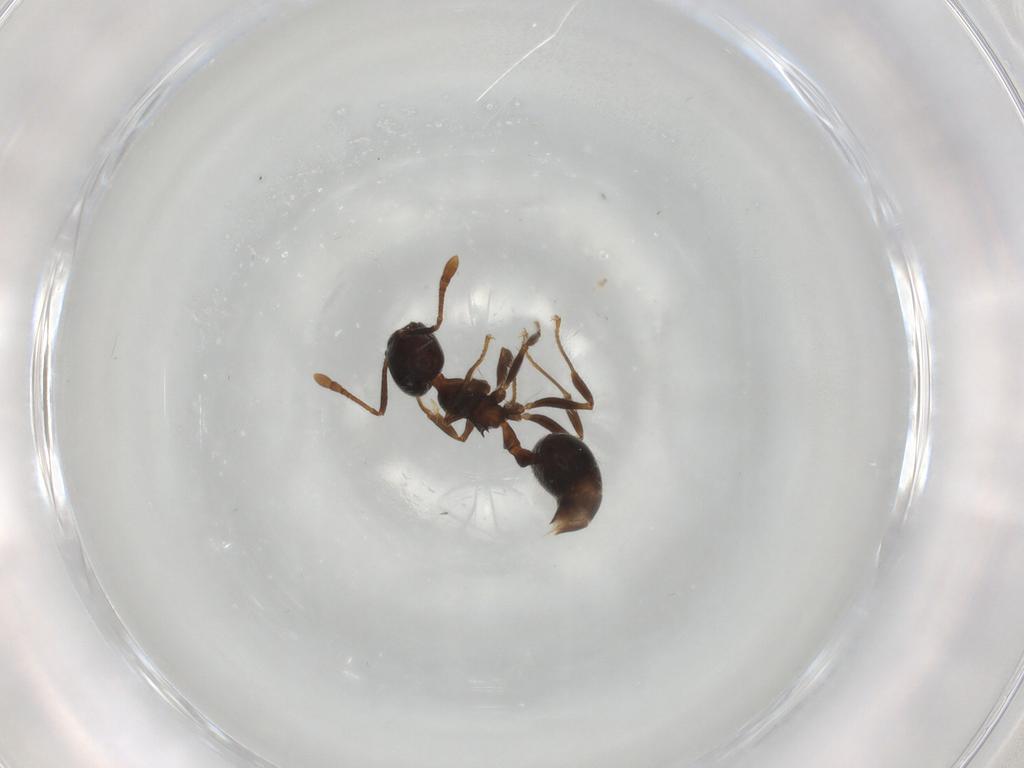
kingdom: Animalia
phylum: Arthropoda
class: Insecta
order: Hymenoptera
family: Formicidae
